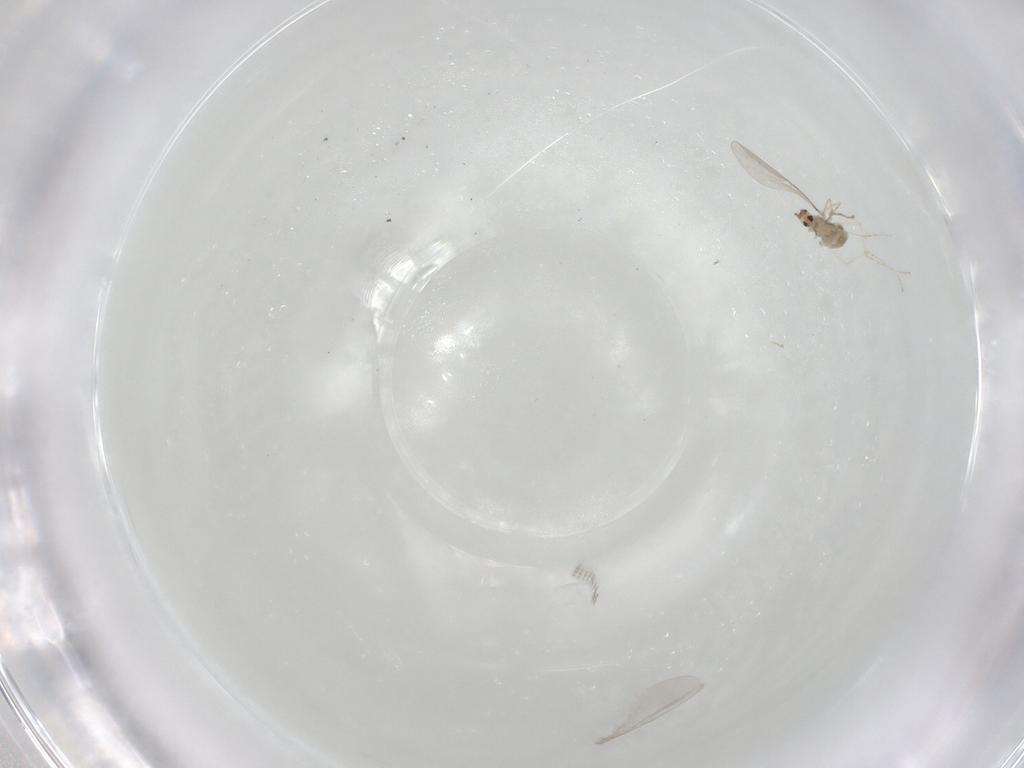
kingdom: Animalia
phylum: Arthropoda
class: Insecta
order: Diptera
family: Cecidomyiidae
